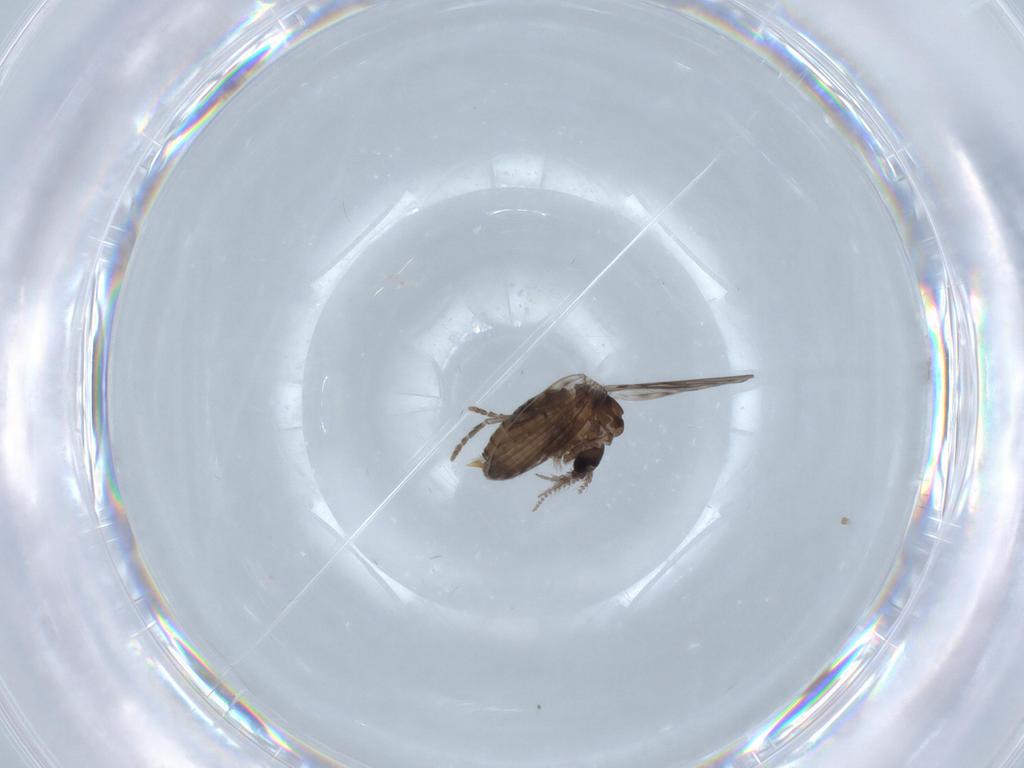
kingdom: Animalia
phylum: Arthropoda
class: Insecta
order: Diptera
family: Psychodidae
